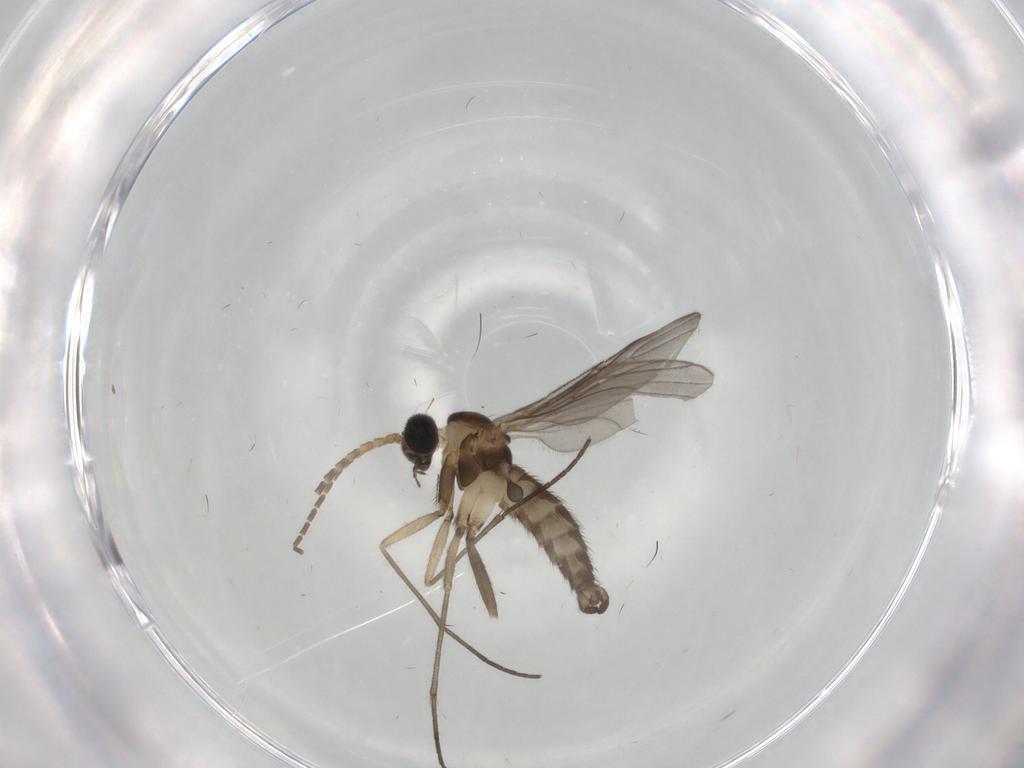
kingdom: Animalia
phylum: Arthropoda
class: Insecta
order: Diptera
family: Sciaridae
